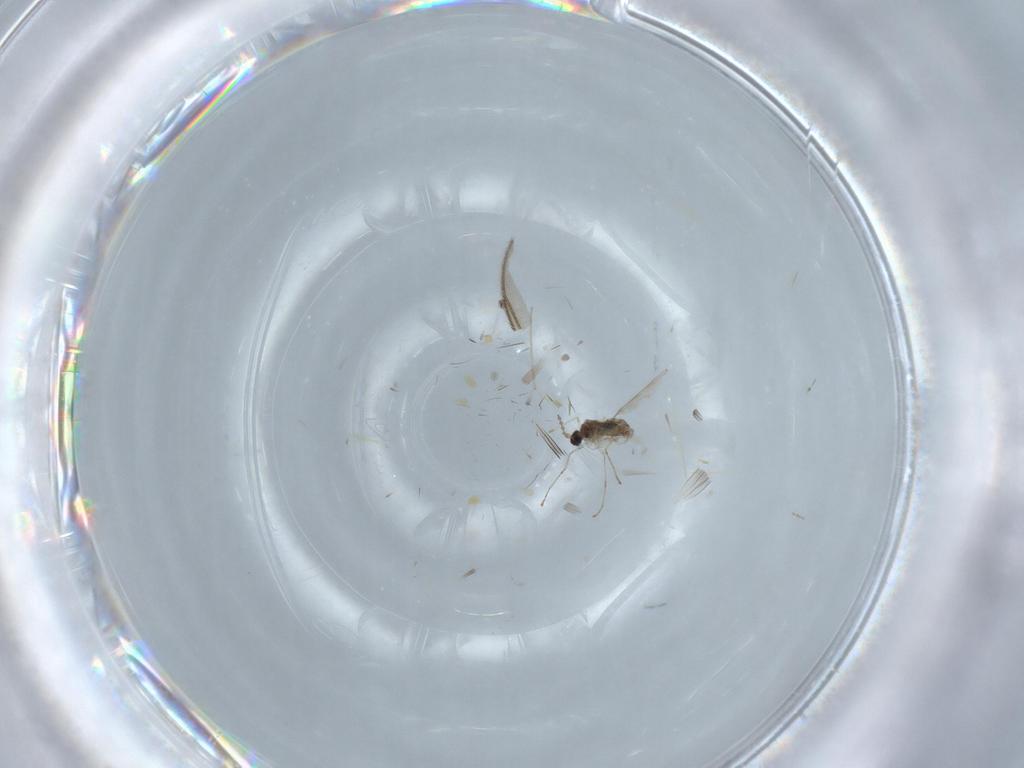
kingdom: Animalia
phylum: Arthropoda
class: Insecta
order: Diptera
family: Cecidomyiidae
